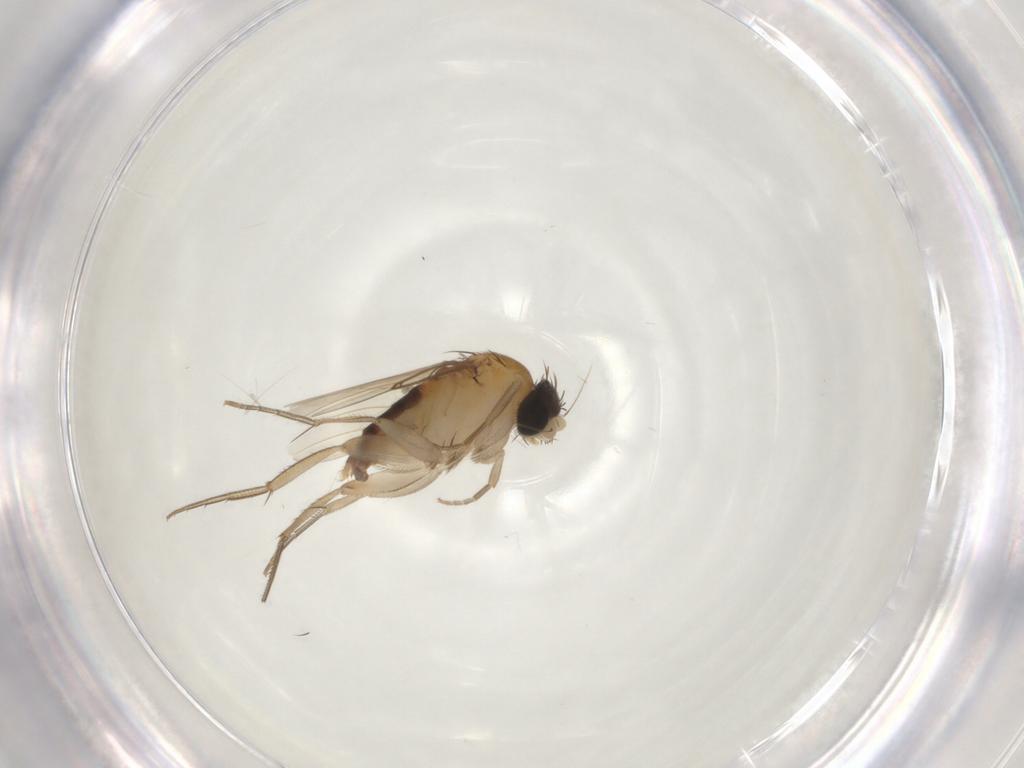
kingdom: Animalia
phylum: Arthropoda
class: Insecta
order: Diptera
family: Phoridae
